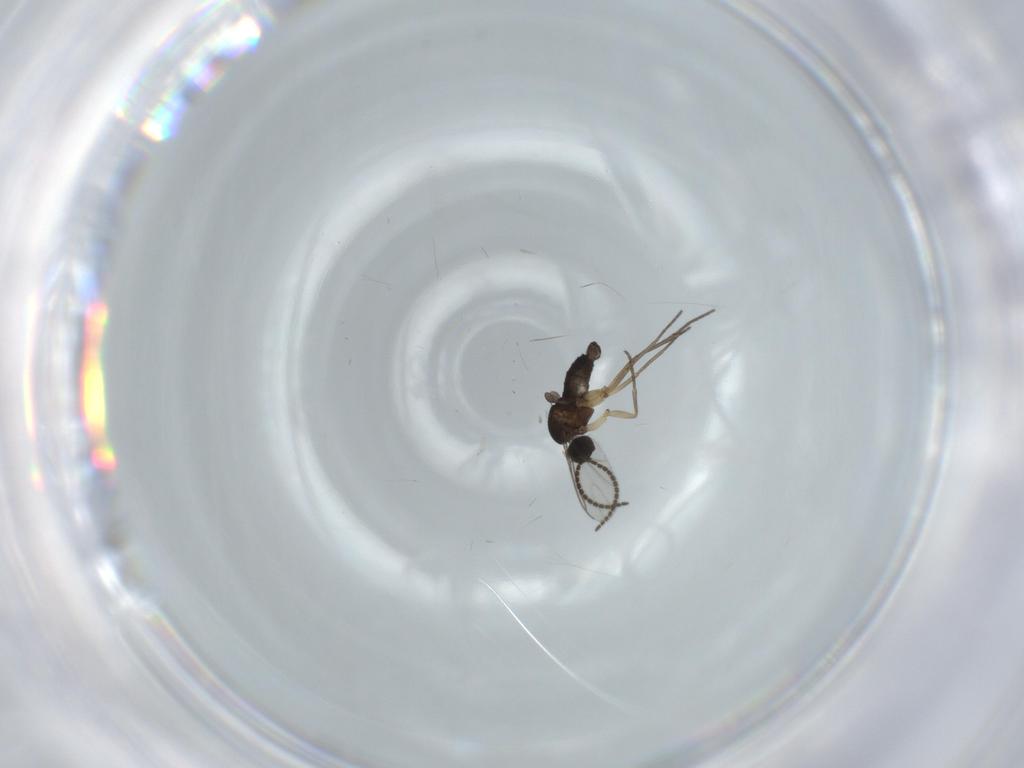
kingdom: Animalia
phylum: Arthropoda
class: Insecta
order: Diptera
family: Sciaridae
